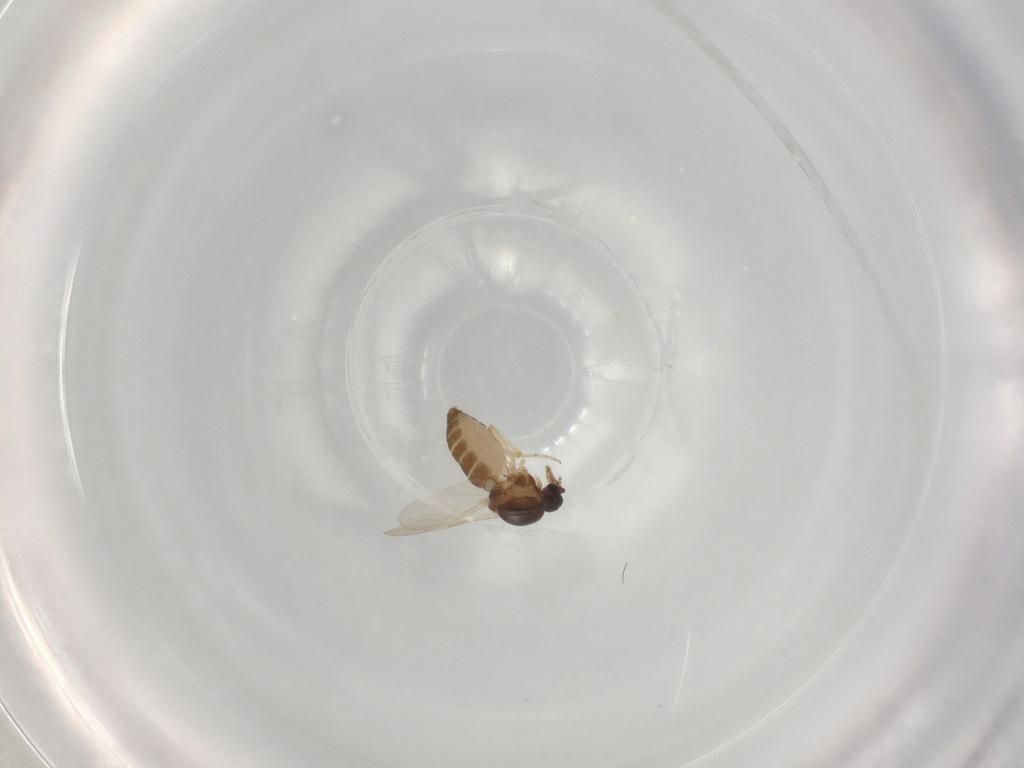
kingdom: Animalia
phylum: Arthropoda
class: Insecta
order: Diptera
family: Ceratopogonidae
